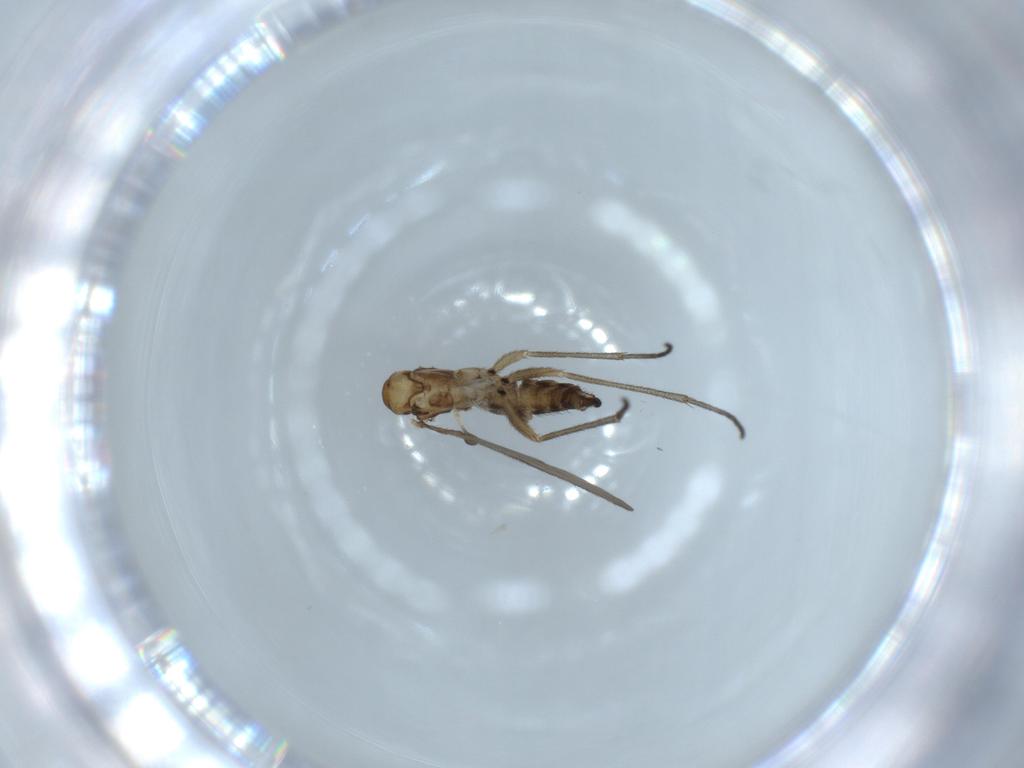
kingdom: Animalia
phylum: Arthropoda
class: Insecta
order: Diptera
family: Sciaridae
